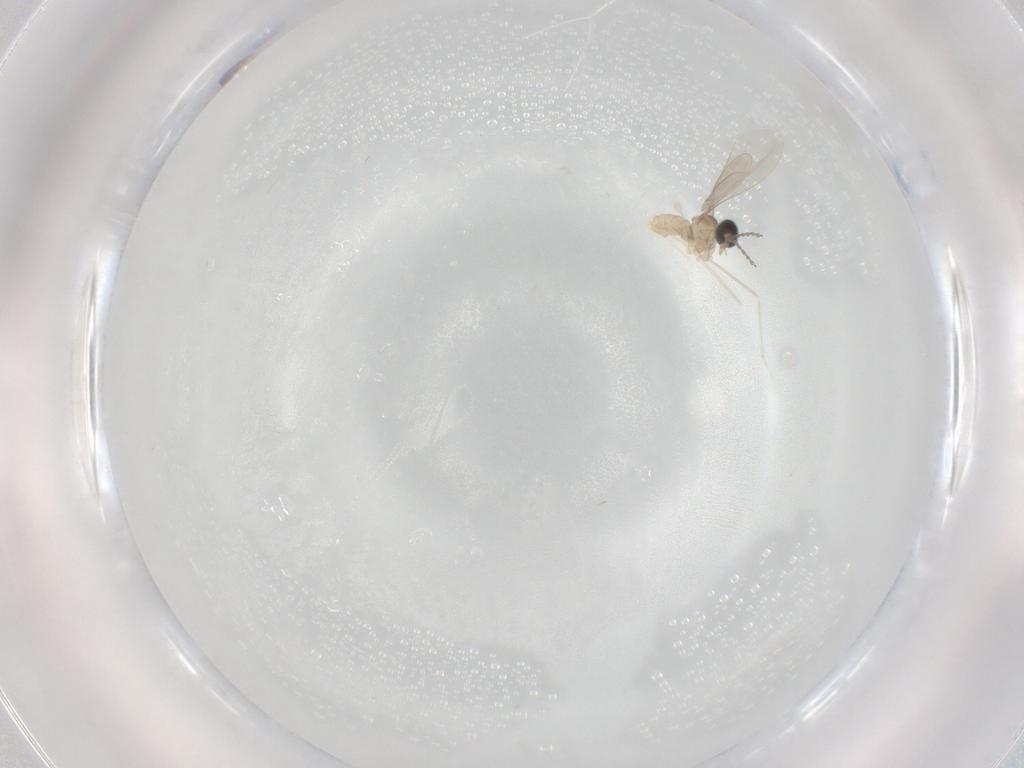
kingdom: Animalia
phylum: Arthropoda
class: Insecta
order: Diptera
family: Cecidomyiidae
